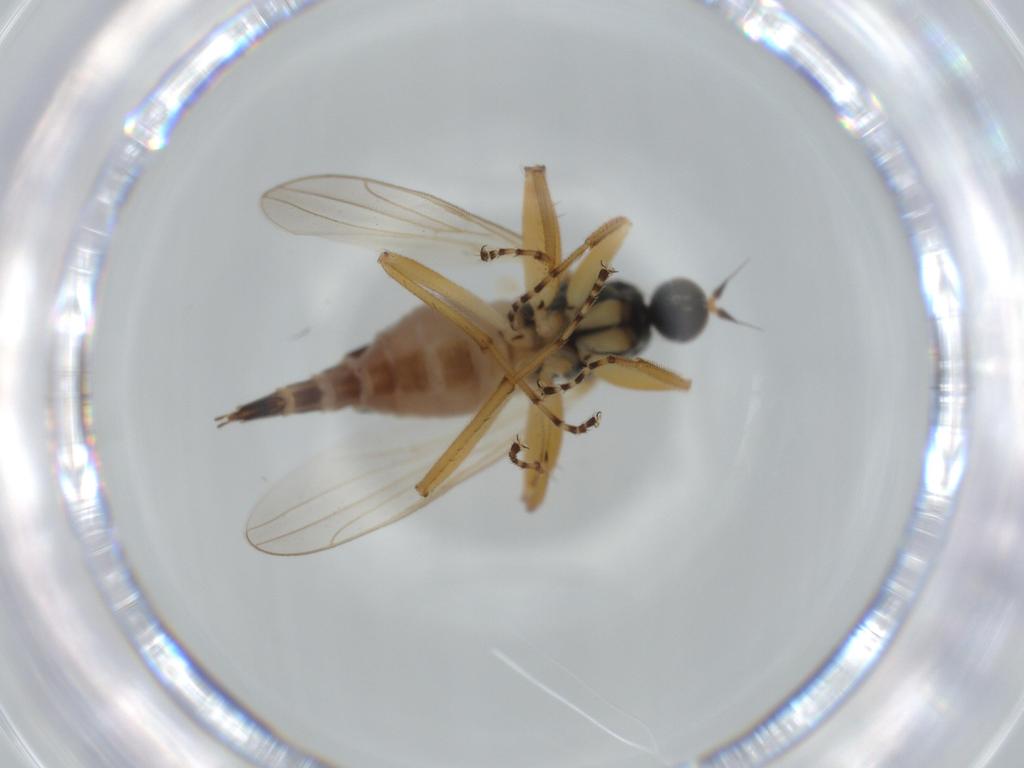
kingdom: Animalia
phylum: Arthropoda
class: Insecta
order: Diptera
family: Hybotidae
